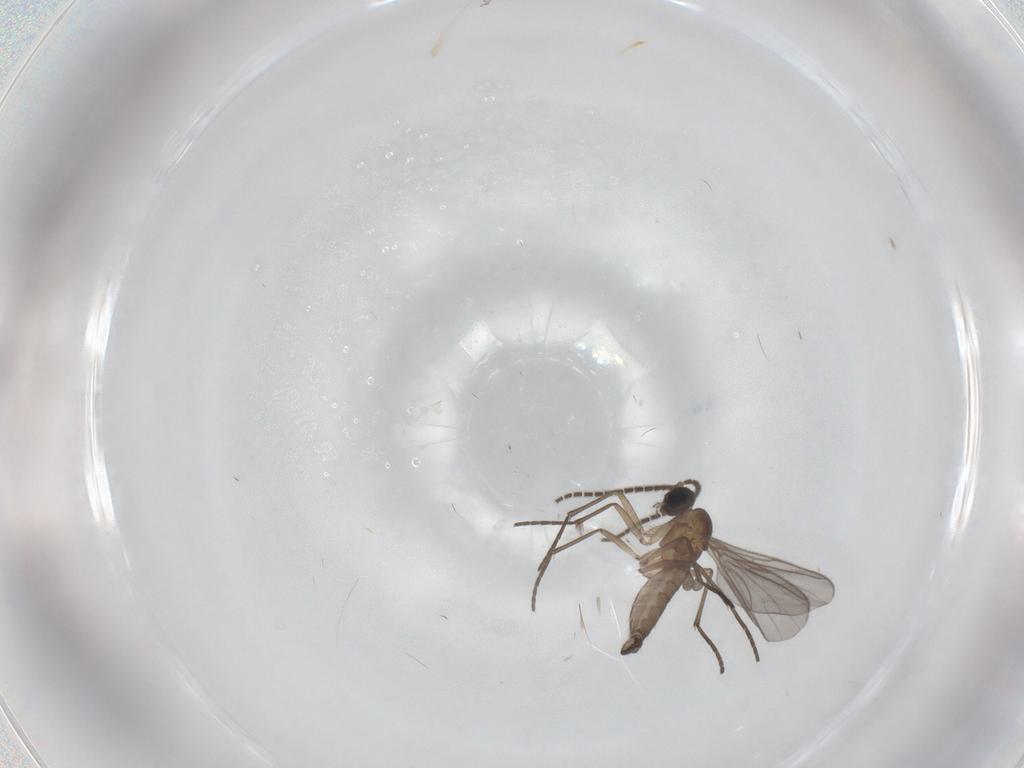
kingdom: Animalia
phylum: Arthropoda
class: Insecta
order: Diptera
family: Sciaridae
